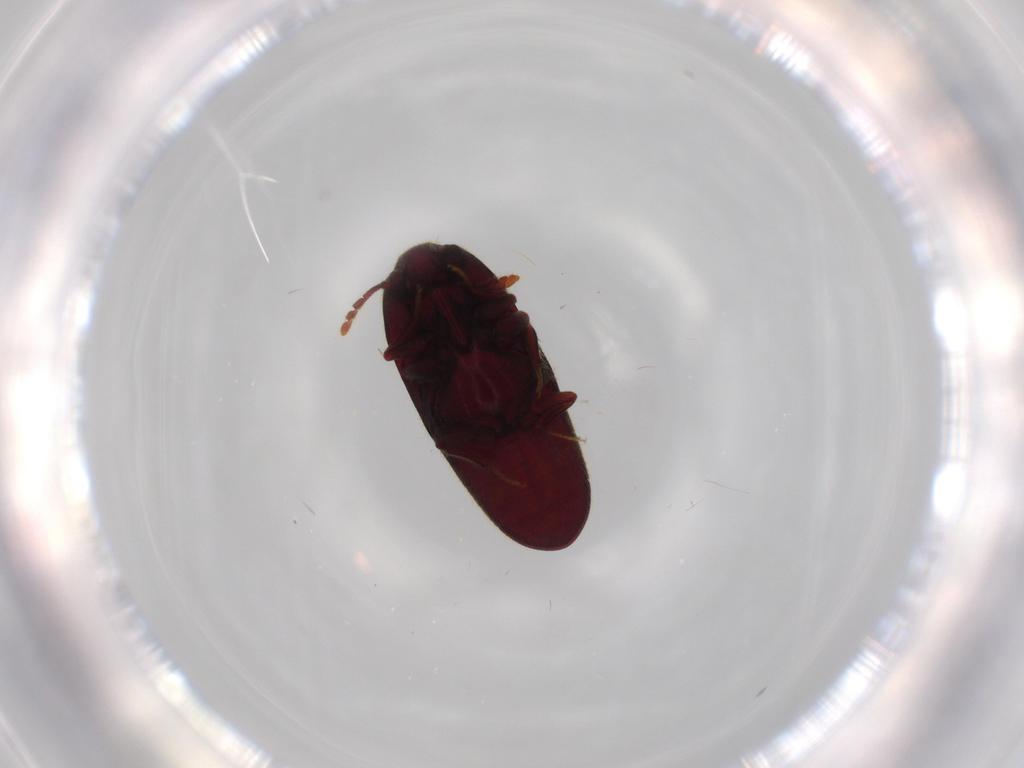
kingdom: Animalia
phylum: Arthropoda
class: Insecta
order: Coleoptera
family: Throscidae
